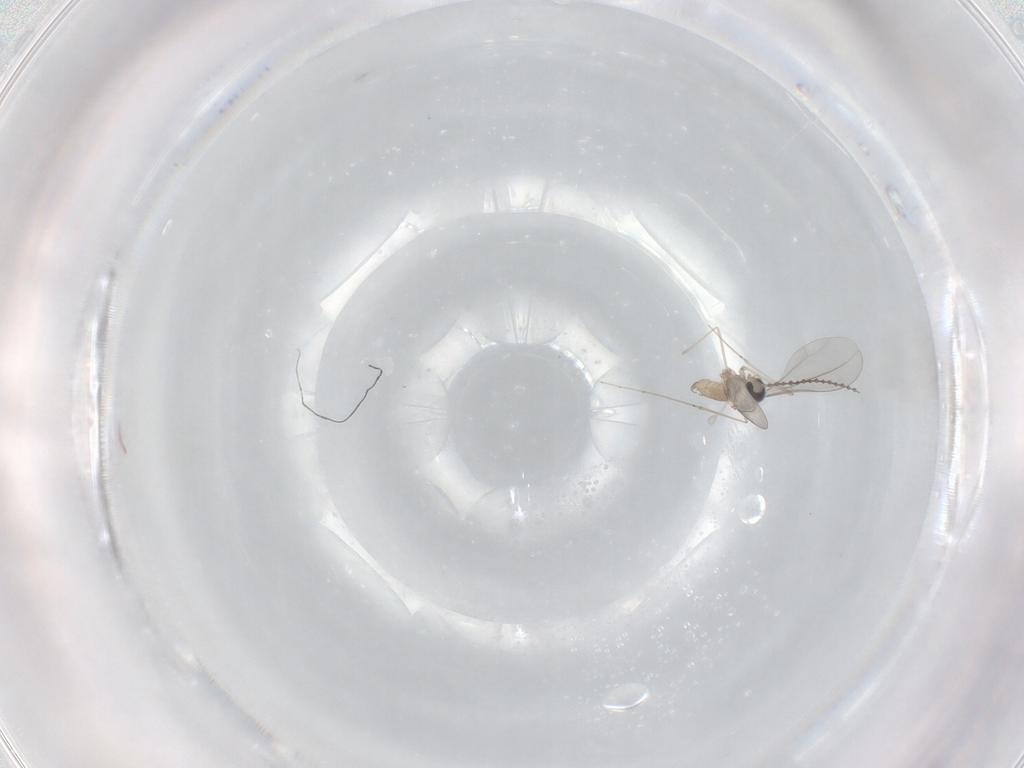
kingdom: Animalia
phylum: Arthropoda
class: Insecta
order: Diptera
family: Cecidomyiidae
